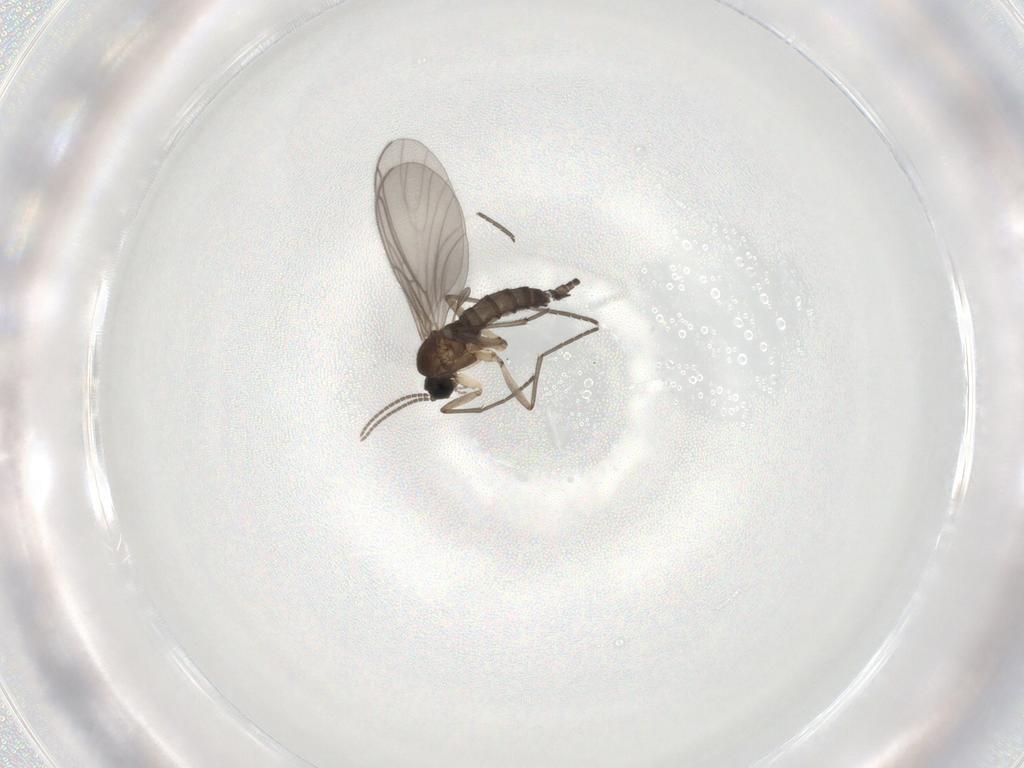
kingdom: Animalia
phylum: Arthropoda
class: Insecta
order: Diptera
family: Sciaridae
